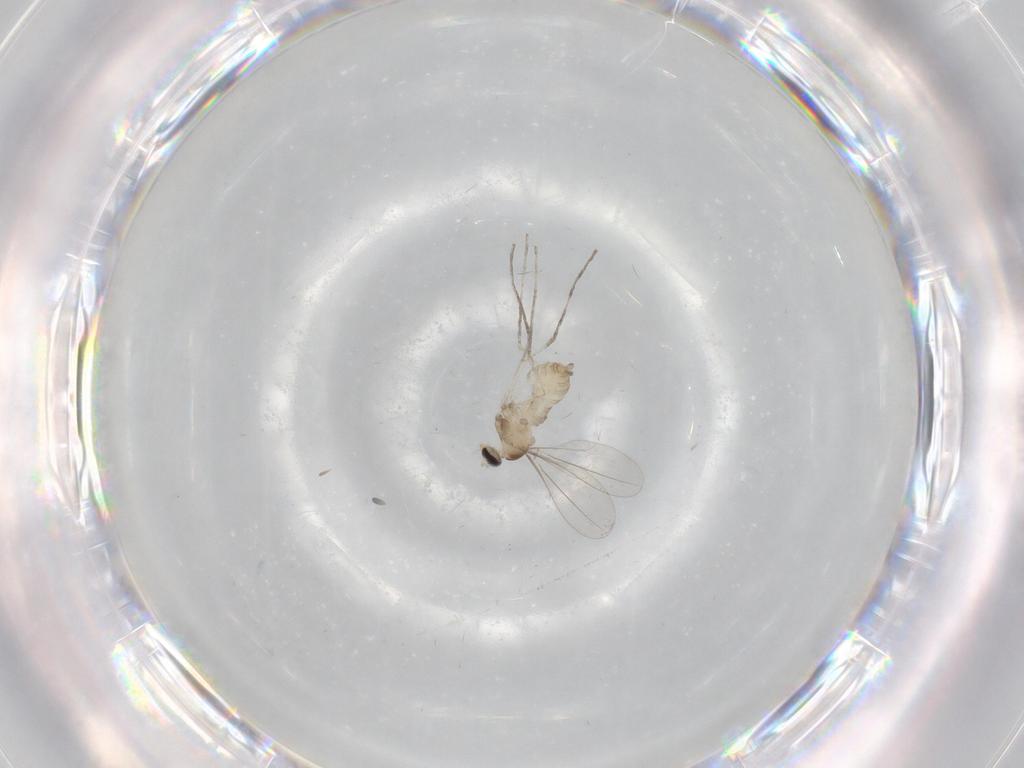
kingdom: Animalia
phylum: Arthropoda
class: Insecta
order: Diptera
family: Cecidomyiidae
